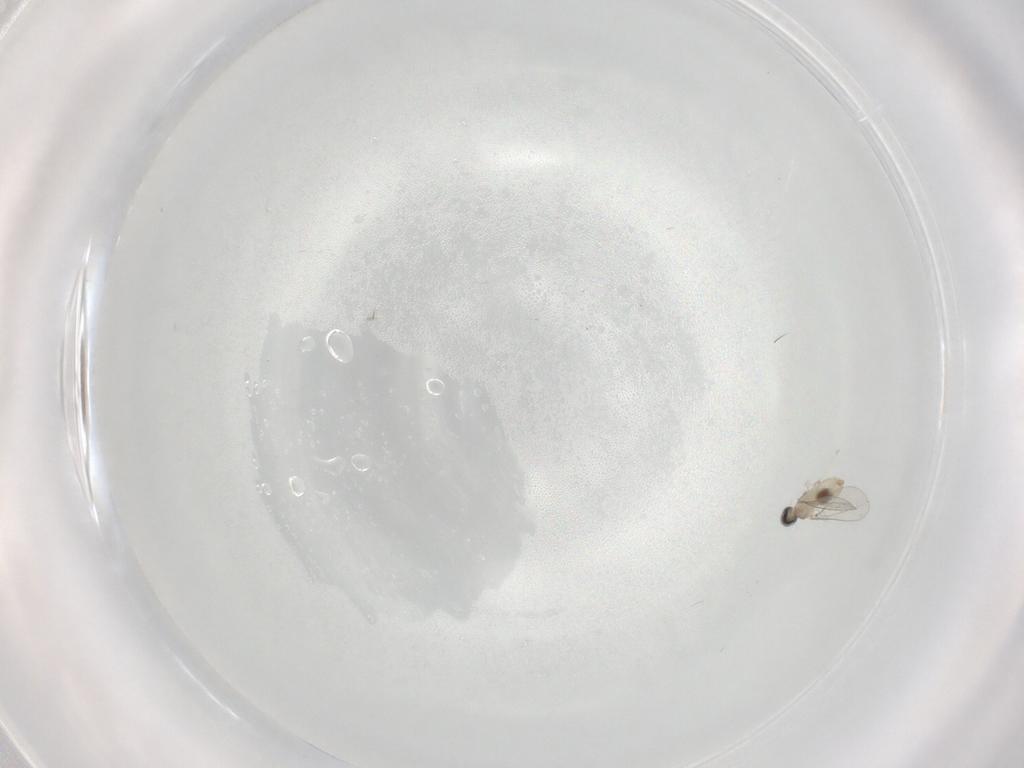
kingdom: Animalia
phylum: Arthropoda
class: Insecta
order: Diptera
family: Cecidomyiidae
